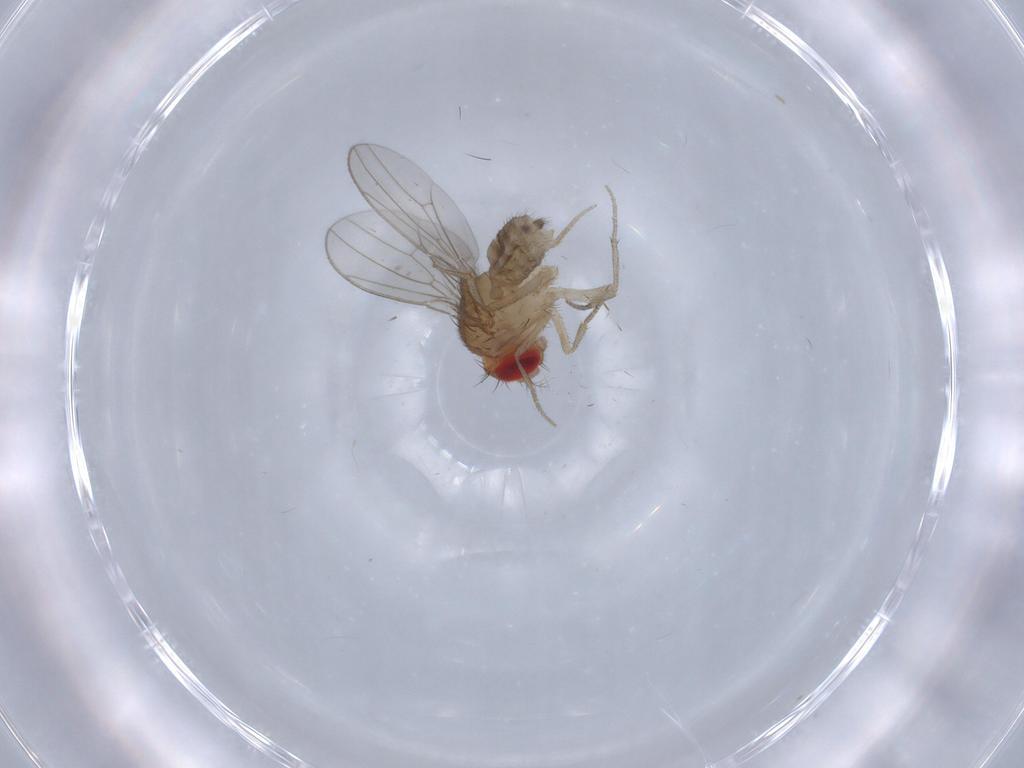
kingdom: Animalia
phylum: Arthropoda
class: Insecta
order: Diptera
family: Drosophilidae
